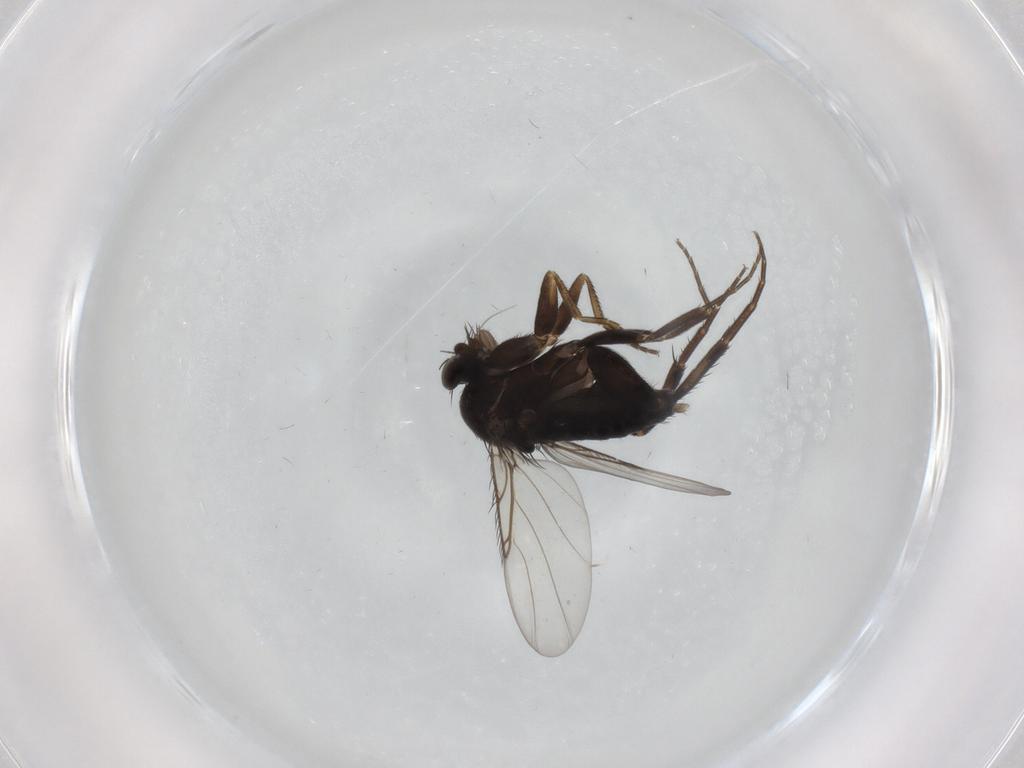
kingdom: Animalia
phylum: Arthropoda
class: Insecta
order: Diptera
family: Phoridae
